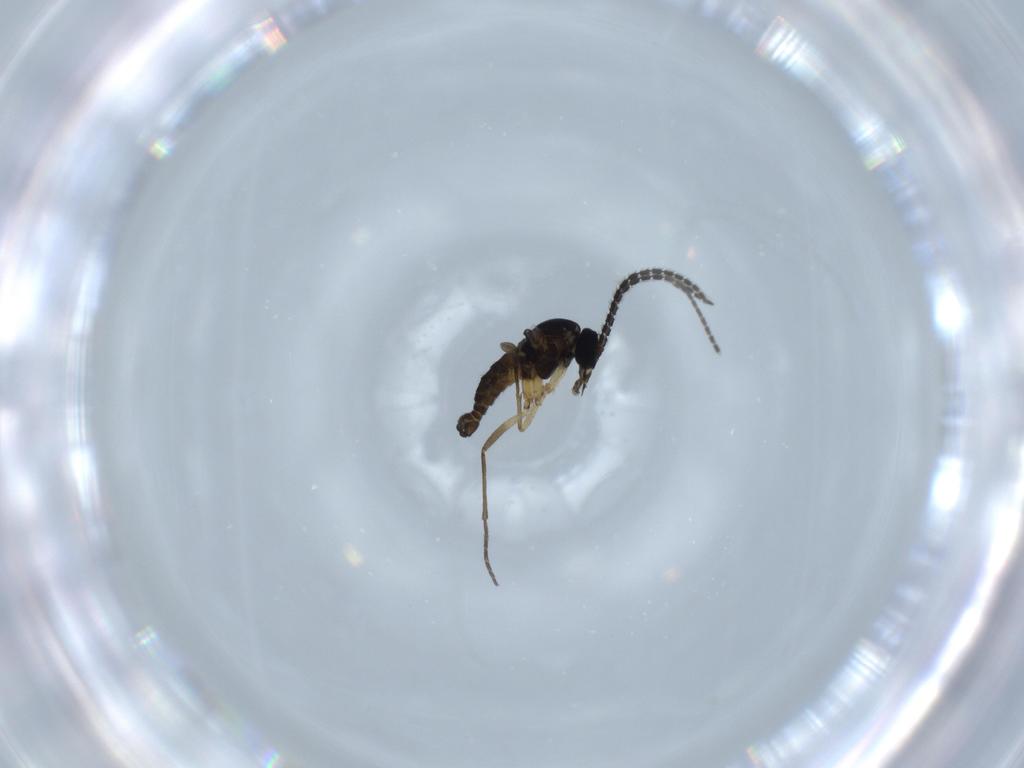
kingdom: Animalia
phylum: Arthropoda
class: Insecta
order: Diptera
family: Sciaridae
